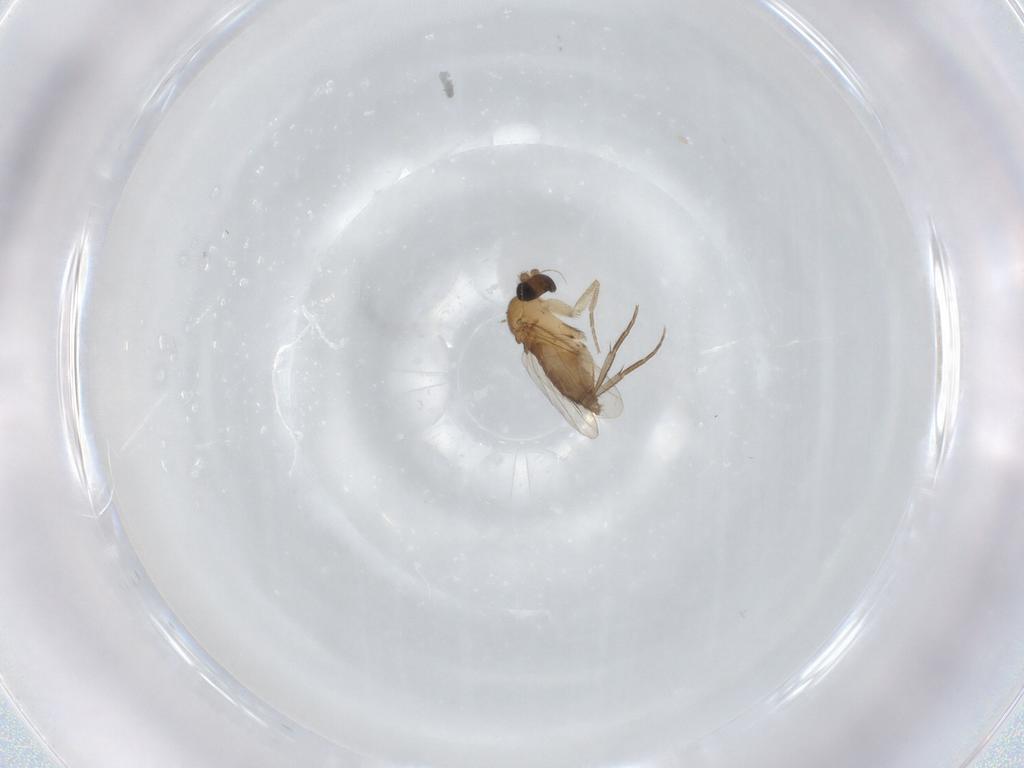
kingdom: Animalia
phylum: Arthropoda
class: Insecta
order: Diptera
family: Phoridae
